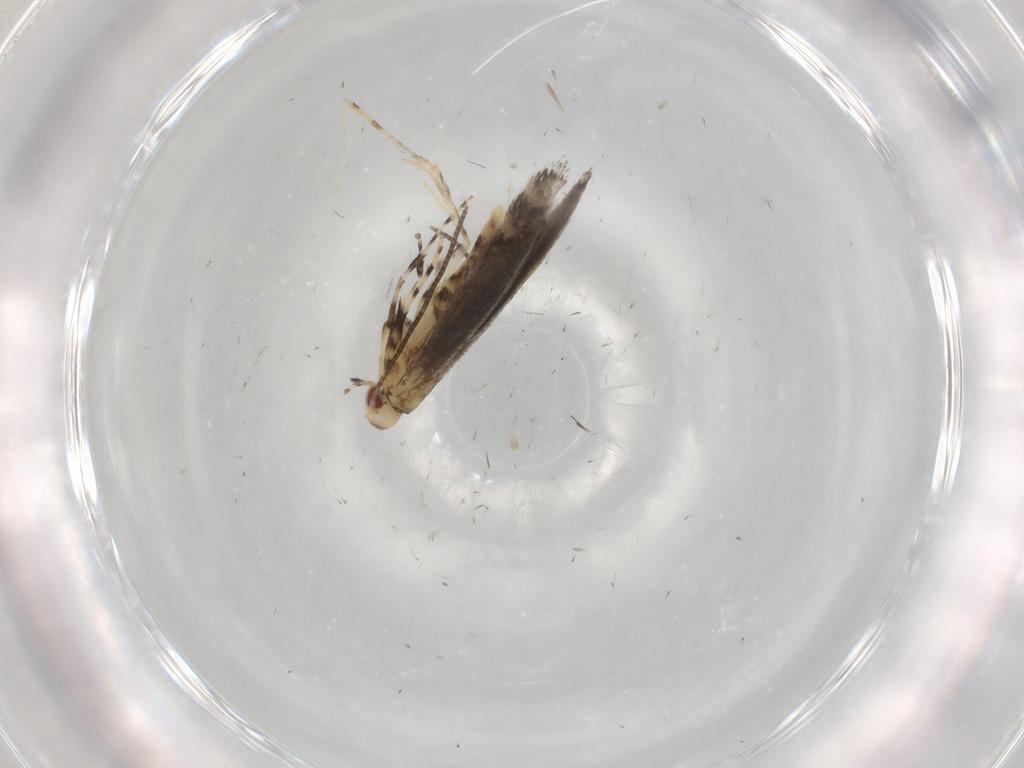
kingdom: Animalia
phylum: Arthropoda
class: Insecta
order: Lepidoptera
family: Gracillariidae
